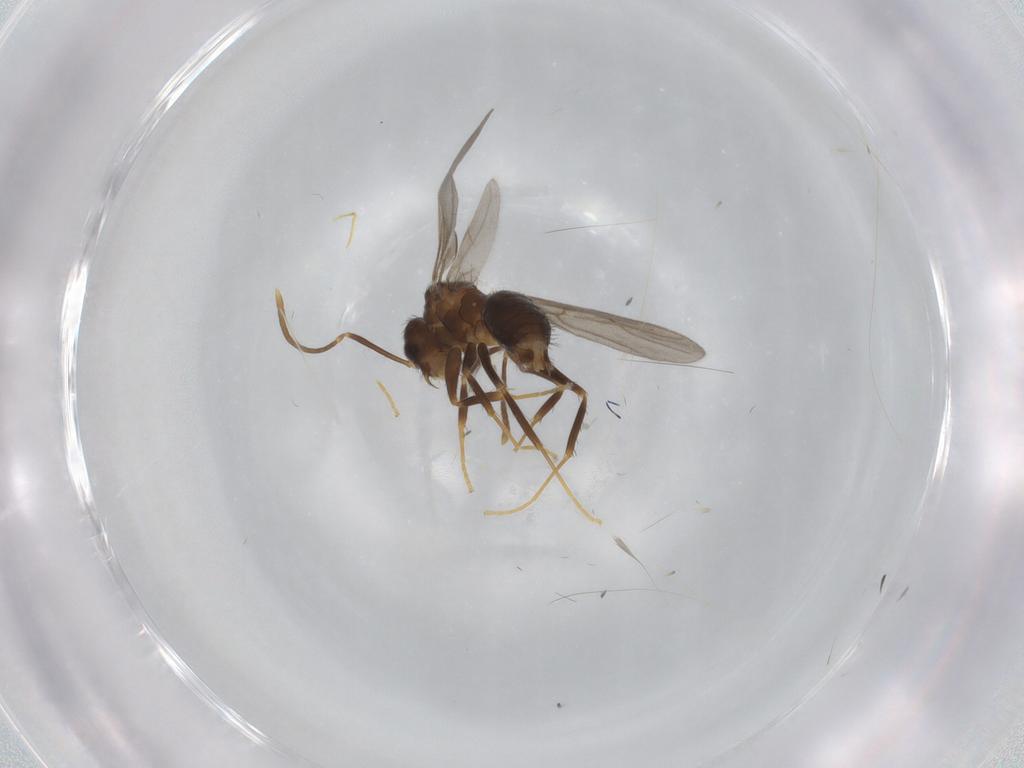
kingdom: Animalia
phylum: Arthropoda
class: Insecta
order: Hymenoptera
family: Formicidae
